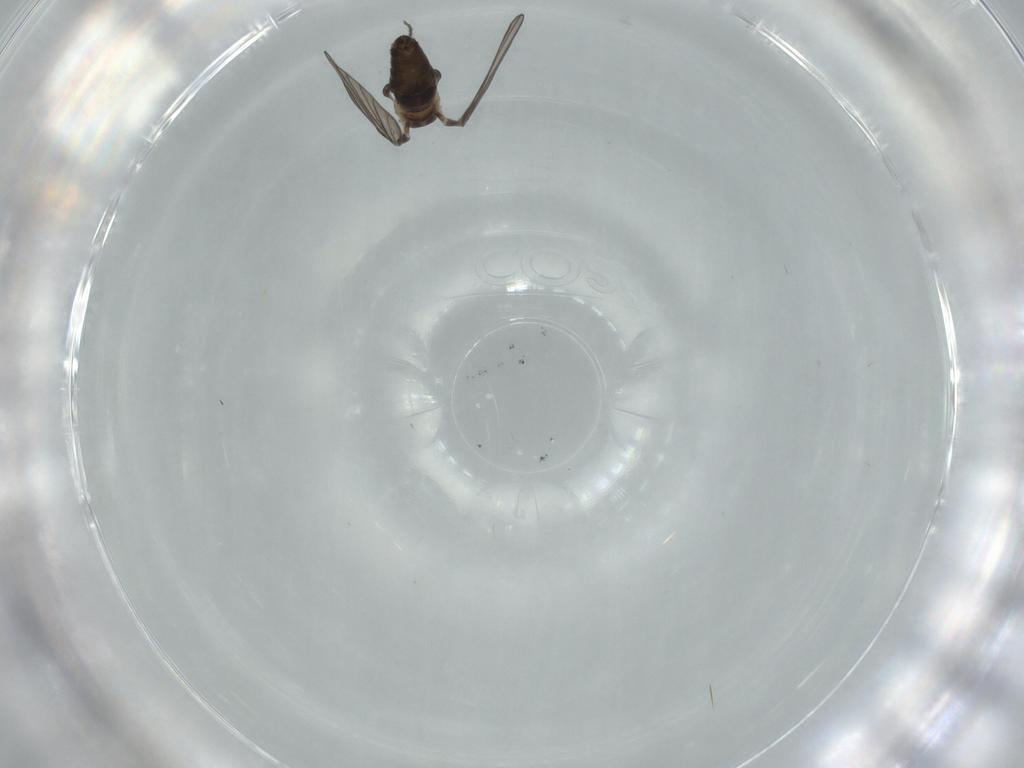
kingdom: Animalia
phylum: Arthropoda
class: Insecta
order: Diptera
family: Psychodidae
